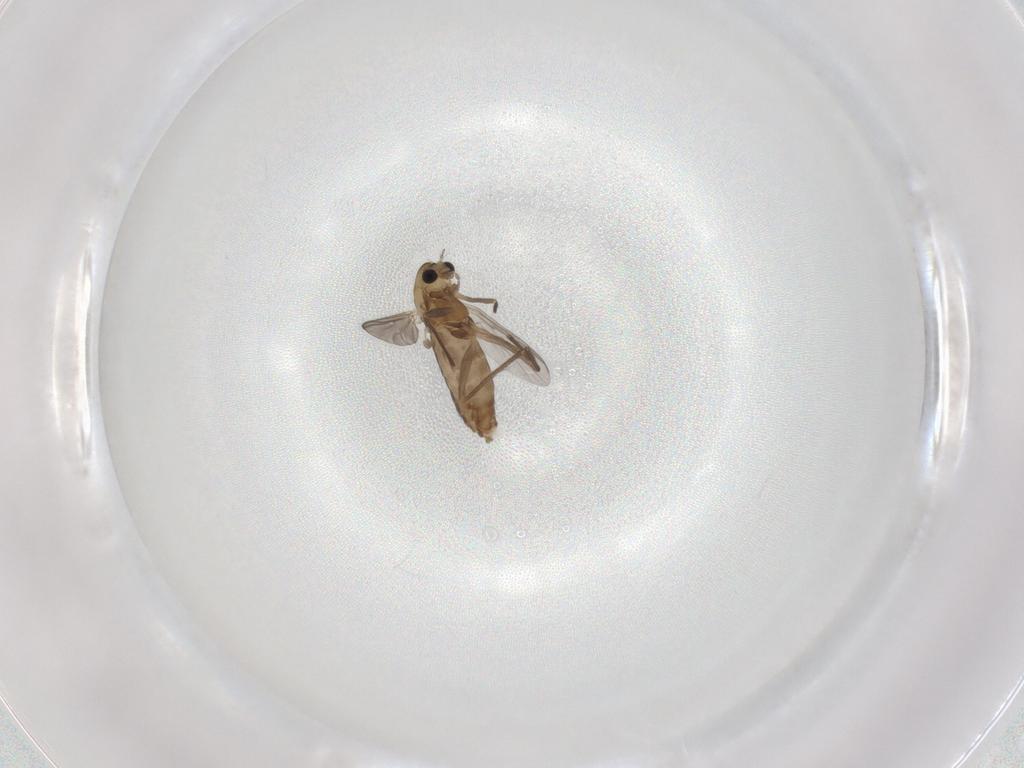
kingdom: Animalia
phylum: Arthropoda
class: Insecta
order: Diptera
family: Chironomidae
